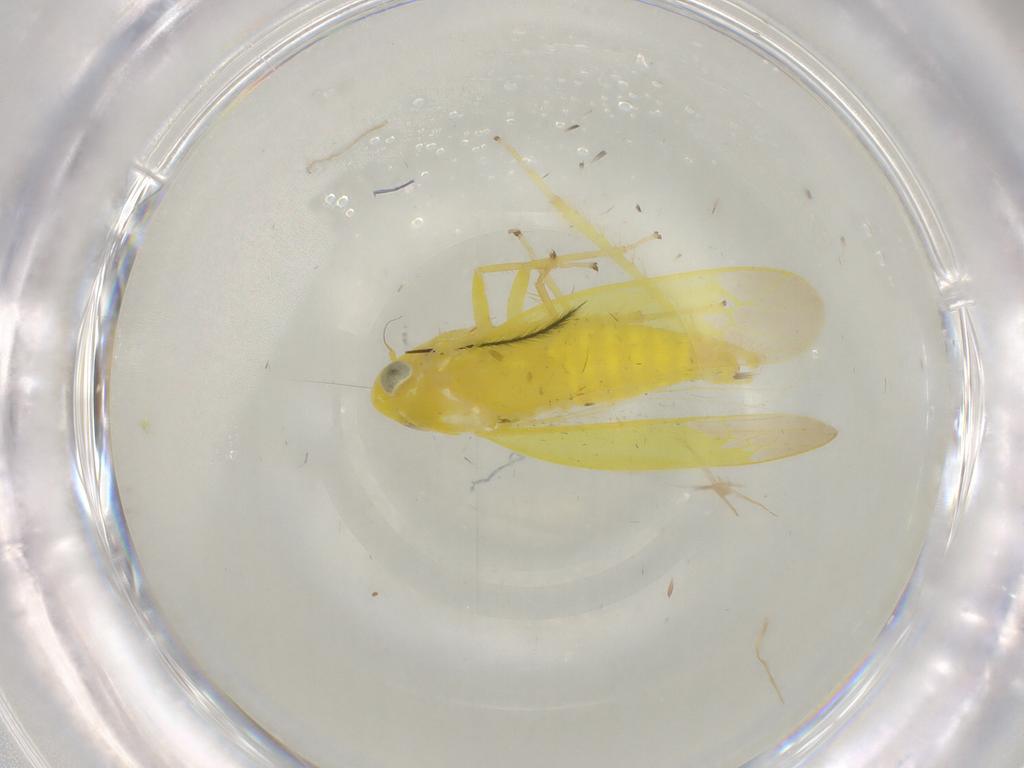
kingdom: Animalia
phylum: Arthropoda
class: Insecta
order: Hemiptera
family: Cicadellidae
